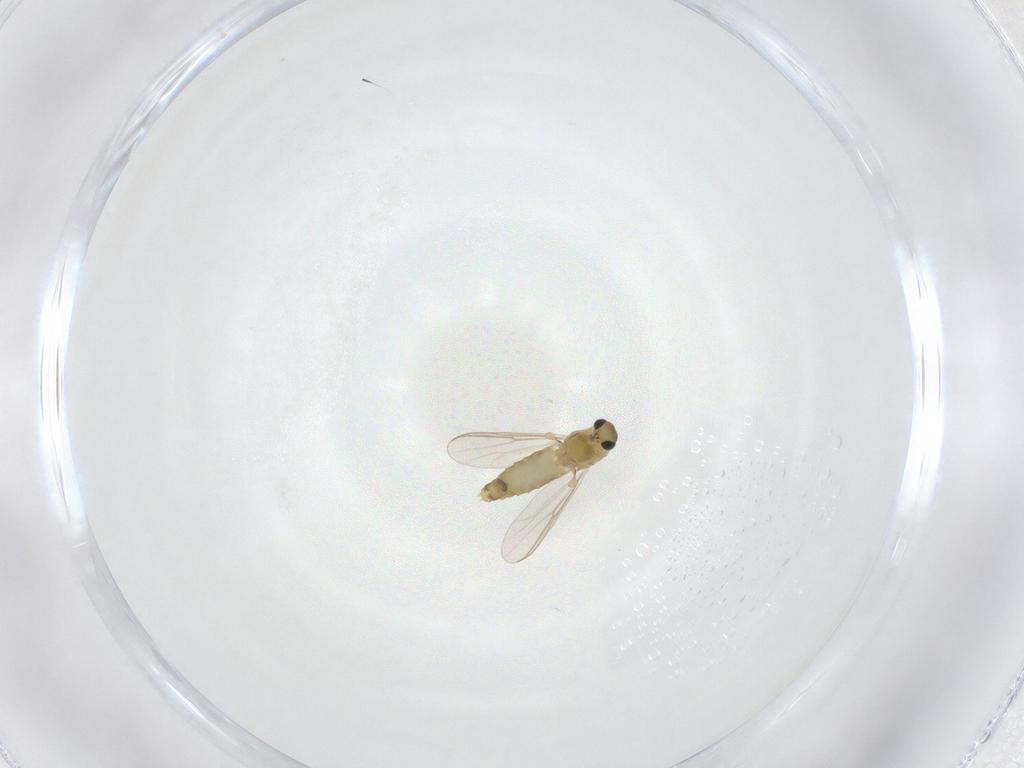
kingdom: Animalia
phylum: Arthropoda
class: Insecta
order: Diptera
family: Chironomidae
